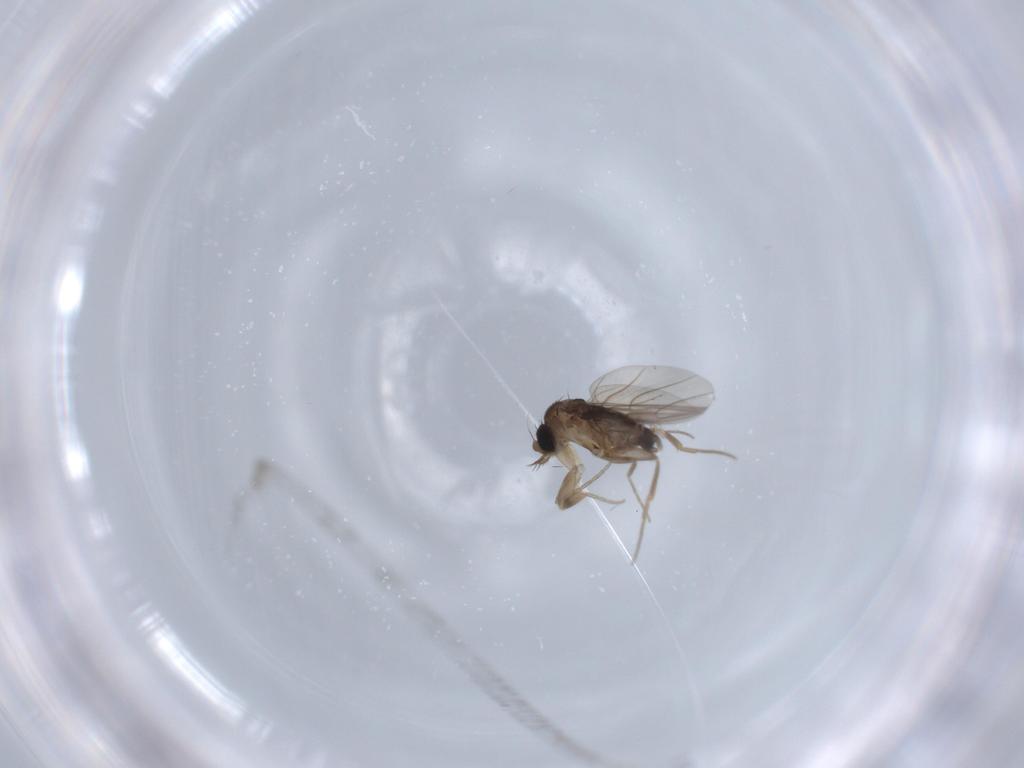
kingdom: Animalia
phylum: Arthropoda
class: Insecta
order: Diptera
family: Phoridae
